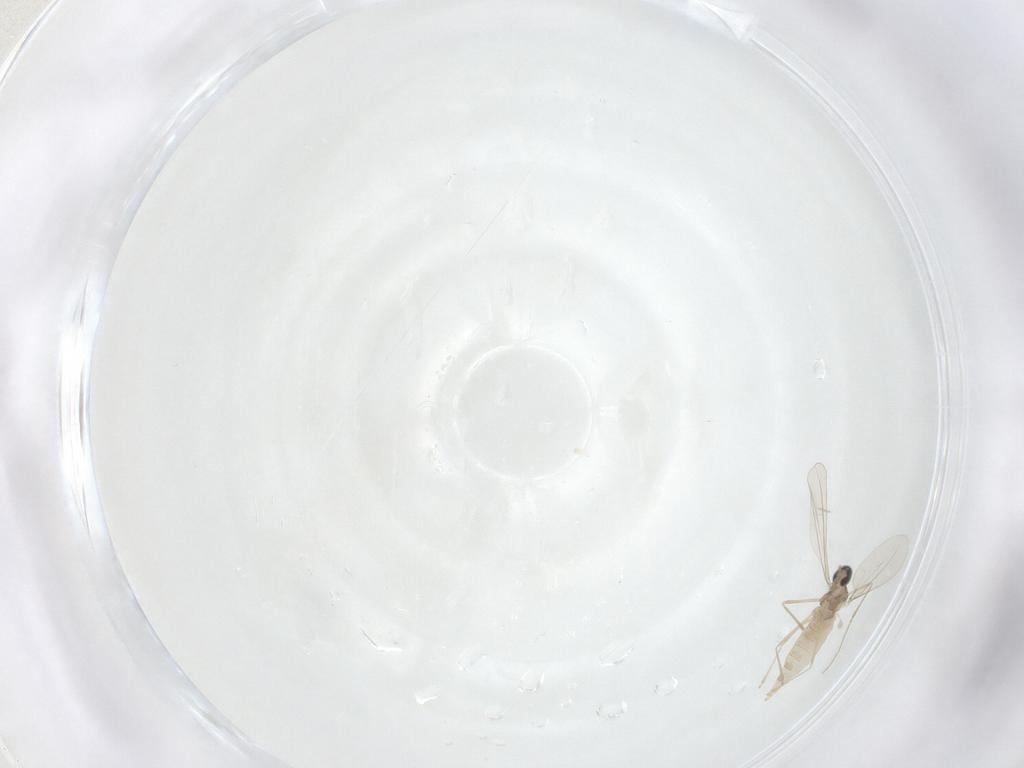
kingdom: Animalia
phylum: Arthropoda
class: Insecta
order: Diptera
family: Cecidomyiidae
